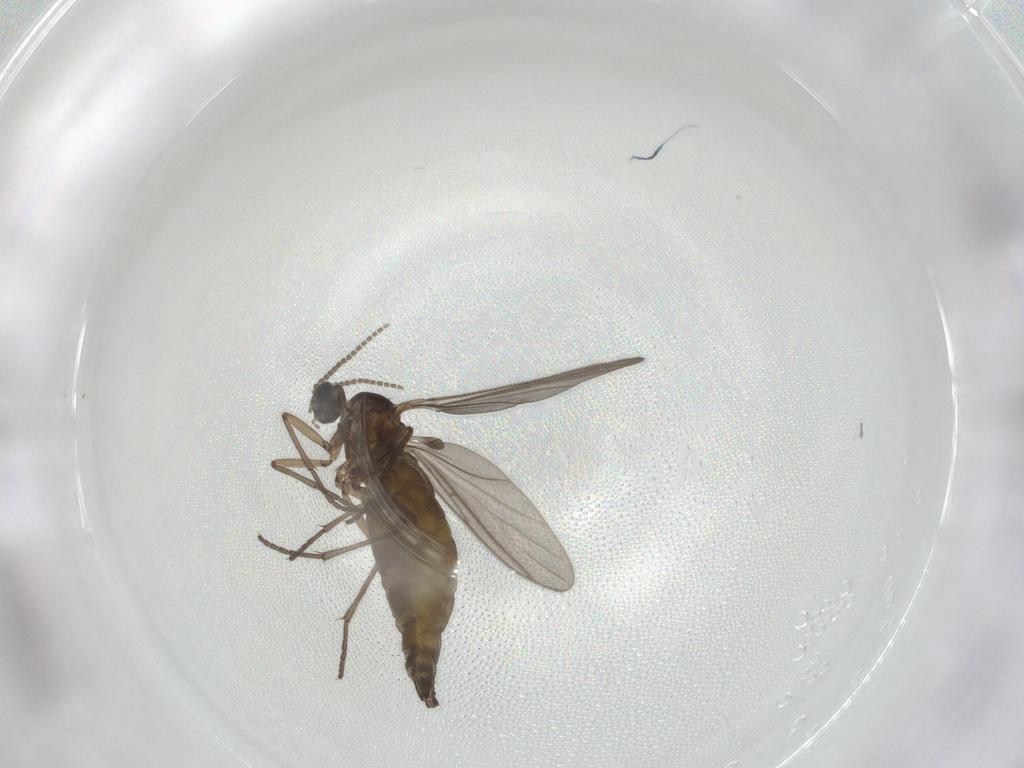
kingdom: Animalia
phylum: Arthropoda
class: Insecta
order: Diptera
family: Sciaridae
